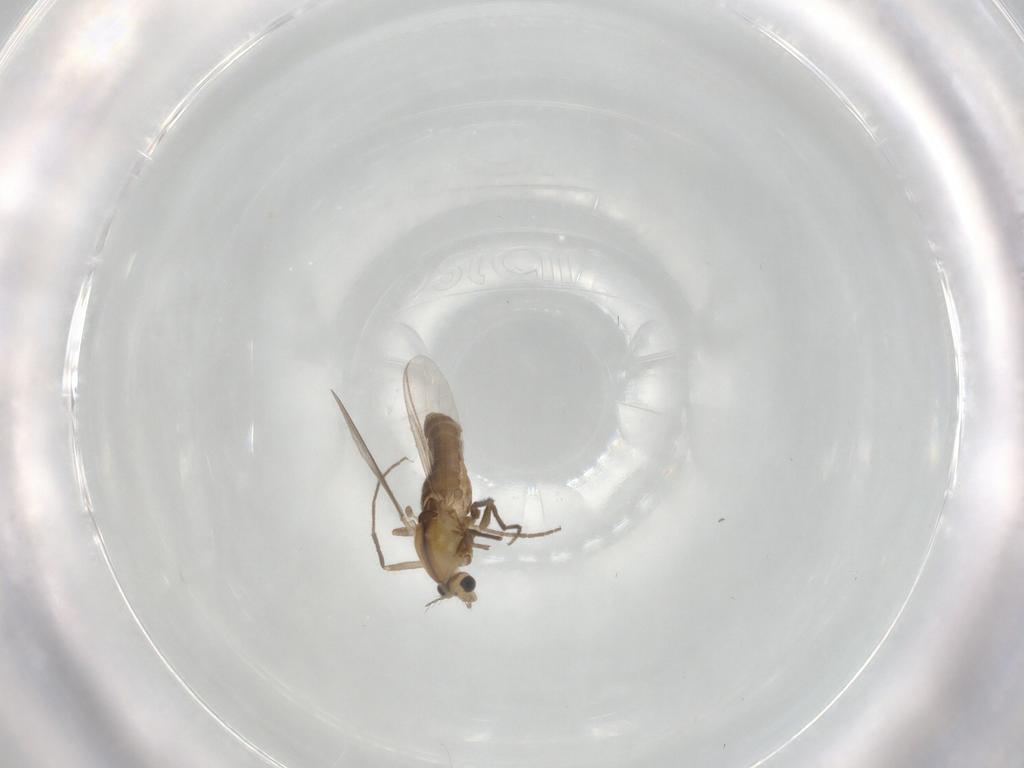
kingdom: Animalia
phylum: Arthropoda
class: Insecta
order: Diptera
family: Chironomidae
